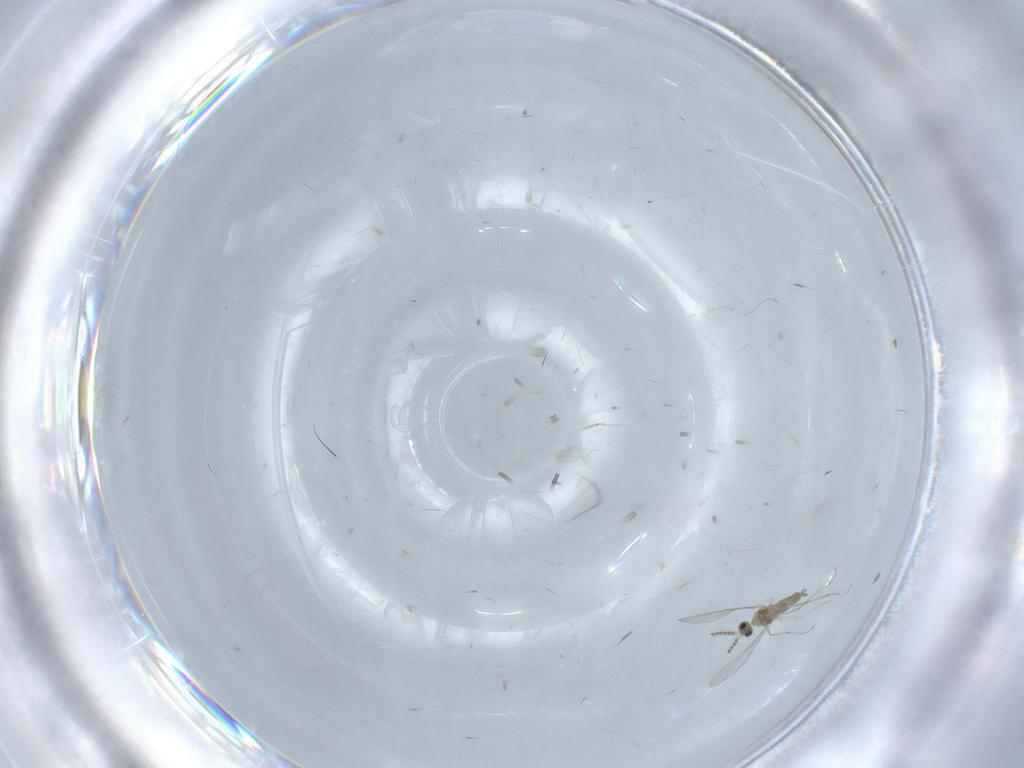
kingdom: Animalia
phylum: Arthropoda
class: Insecta
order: Diptera
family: Cecidomyiidae
